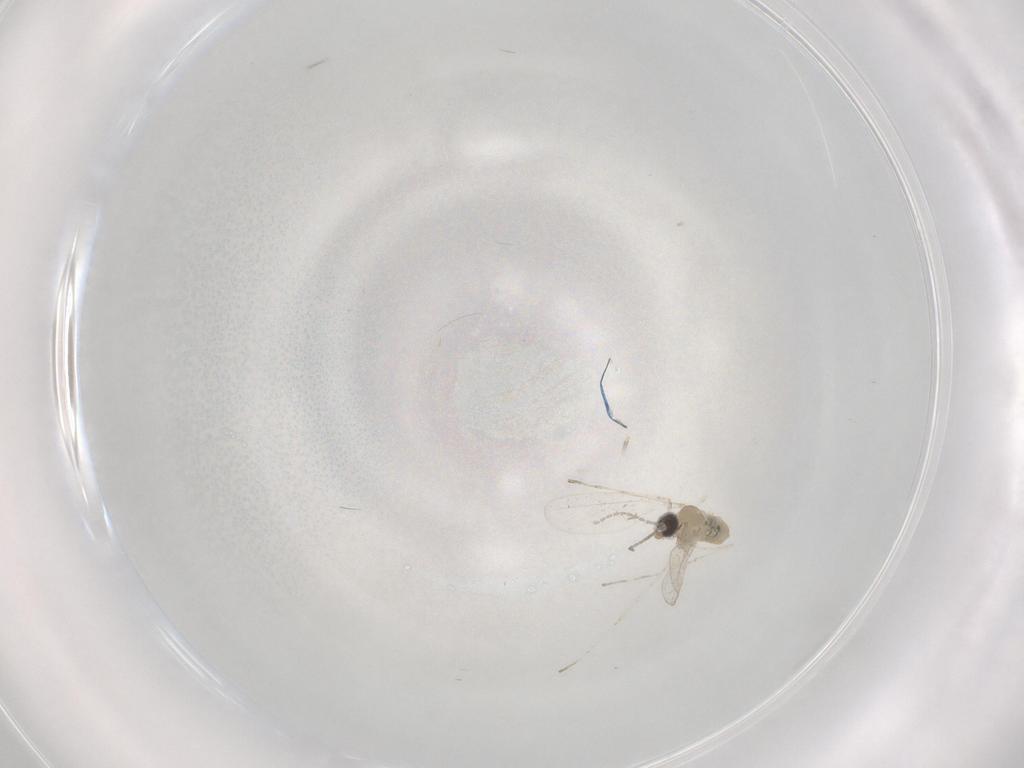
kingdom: Animalia
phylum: Arthropoda
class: Insecta
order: Diptera
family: Cecidomyiidae
